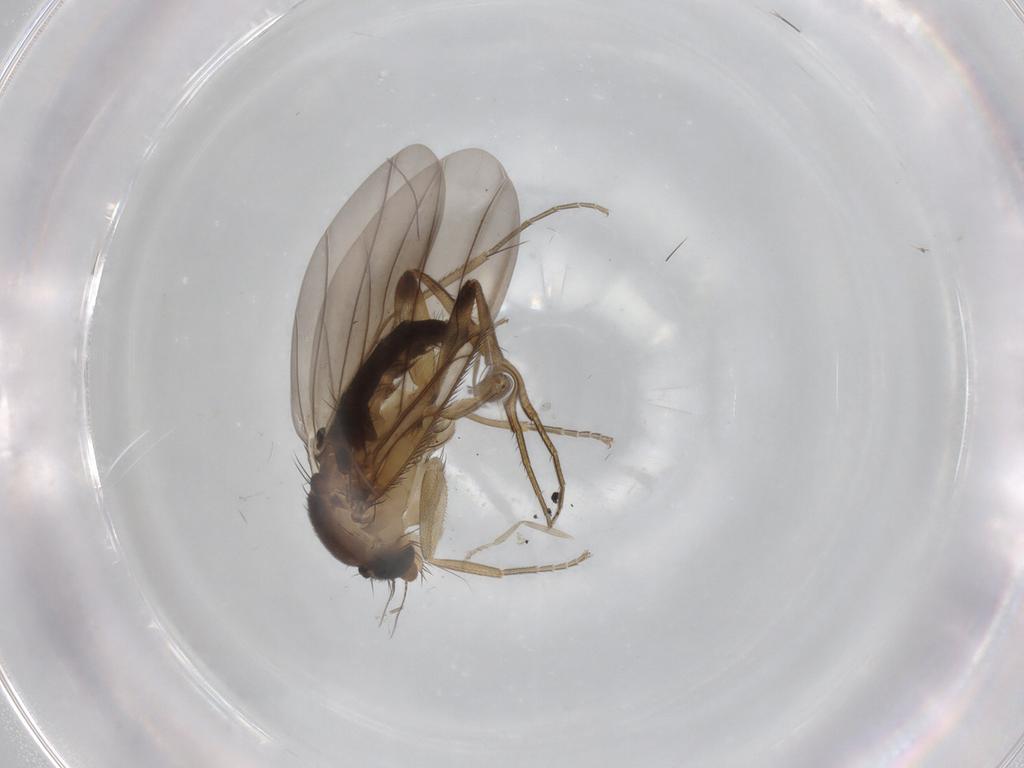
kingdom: Animalia
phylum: Arthropoda
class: Insecta
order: Diptera
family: Phoridae
